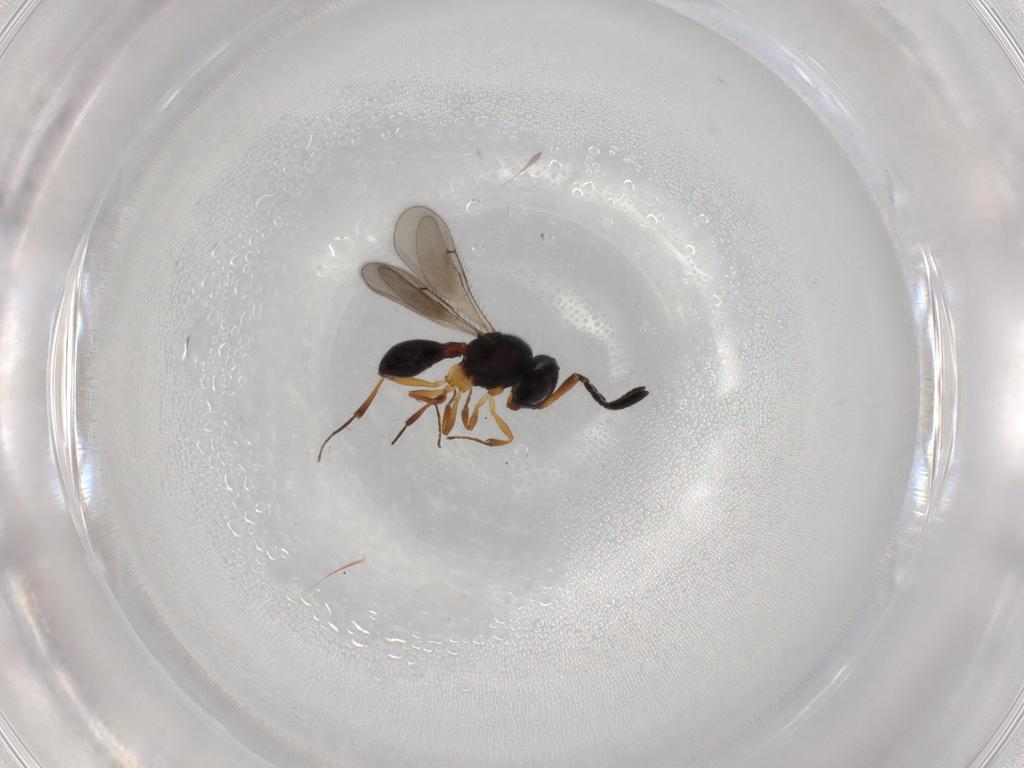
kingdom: Animalia
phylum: Arthropoda
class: Insecta
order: Hymenoptera
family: Scelionidae
